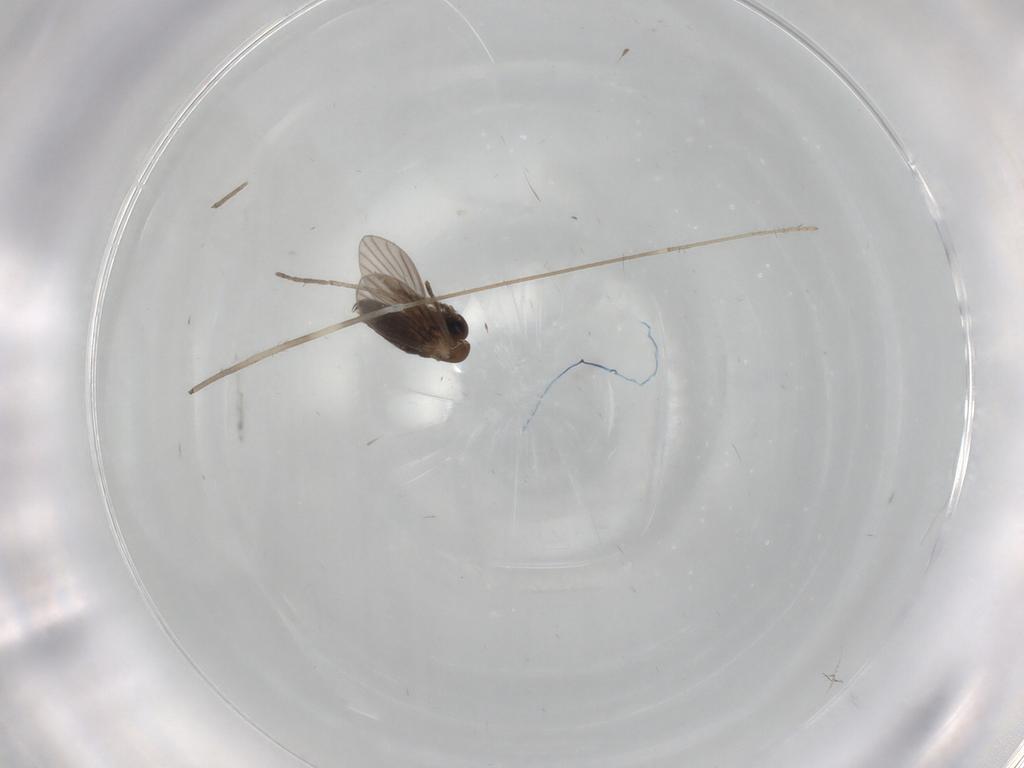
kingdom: Animalia
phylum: Arthropoda
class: Insecta
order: Diptera
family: Limoniidae
